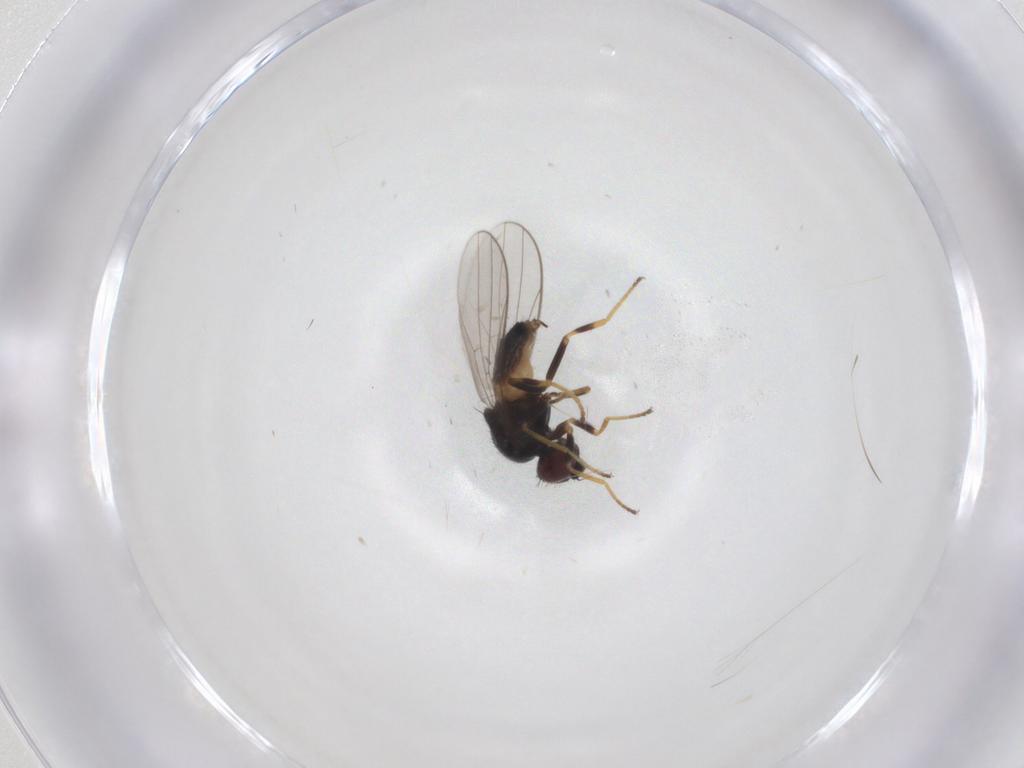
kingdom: Animalia
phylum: Arthropoda
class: Insecta
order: Diptera
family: Chloropidae
